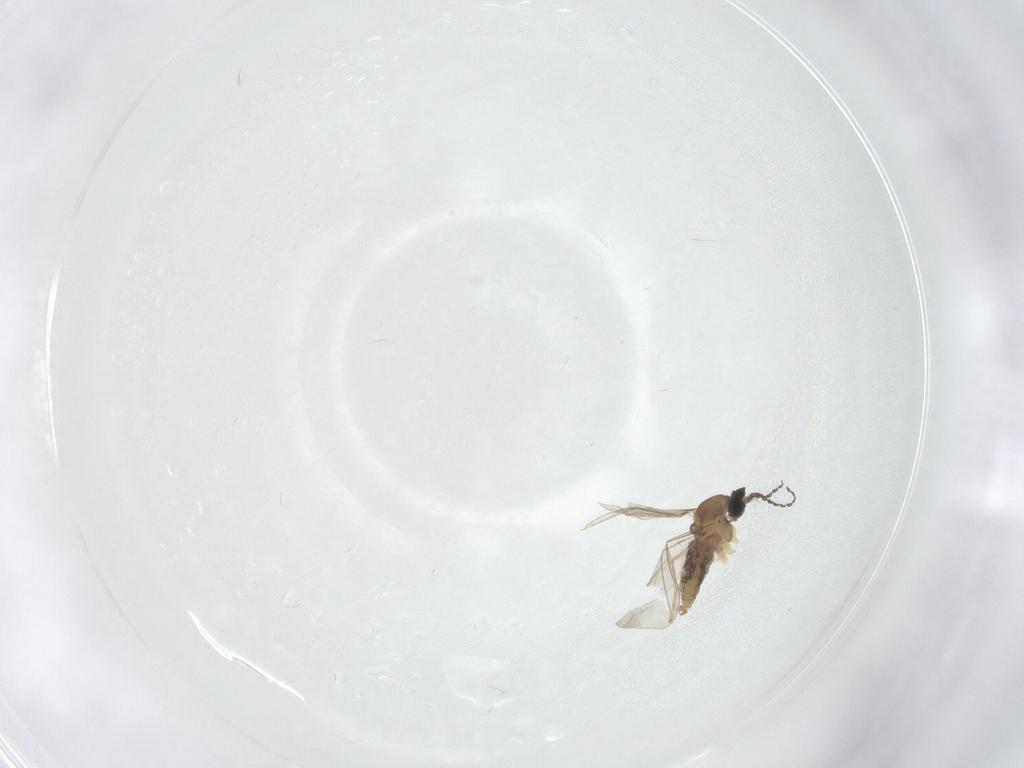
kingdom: Animalia
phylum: Arthropoda
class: Insecta
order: Diptera
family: Cecidomyiidae
